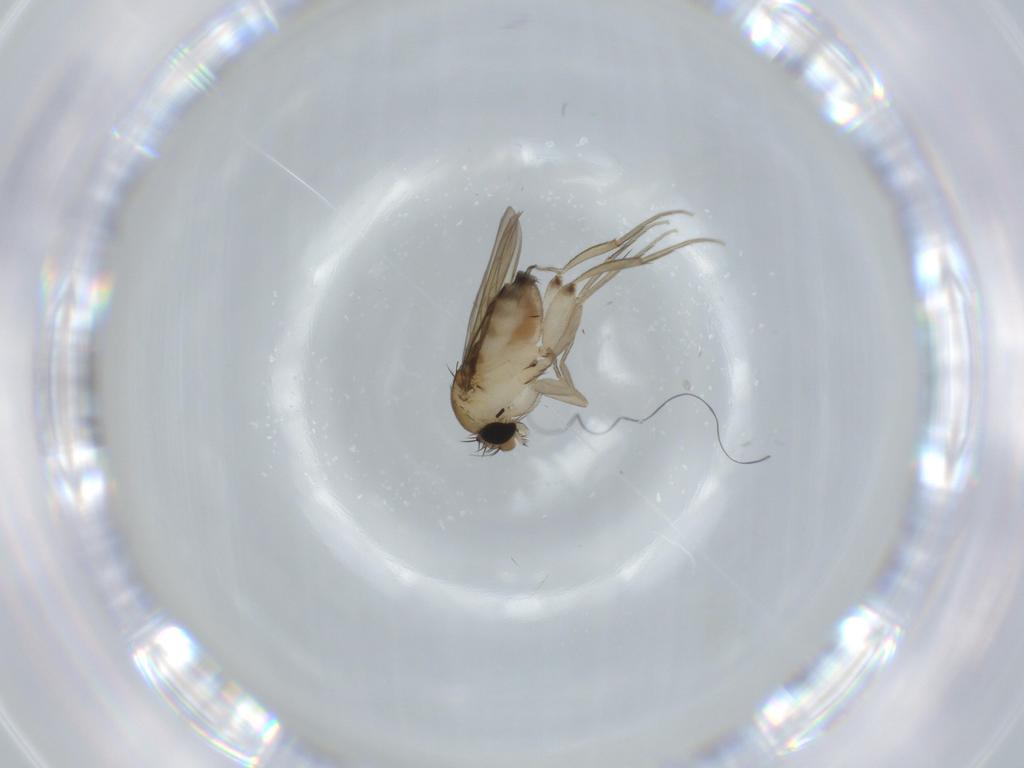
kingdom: Animalia
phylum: Arthropoda
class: Insecta
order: Diptera
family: Phoridae
